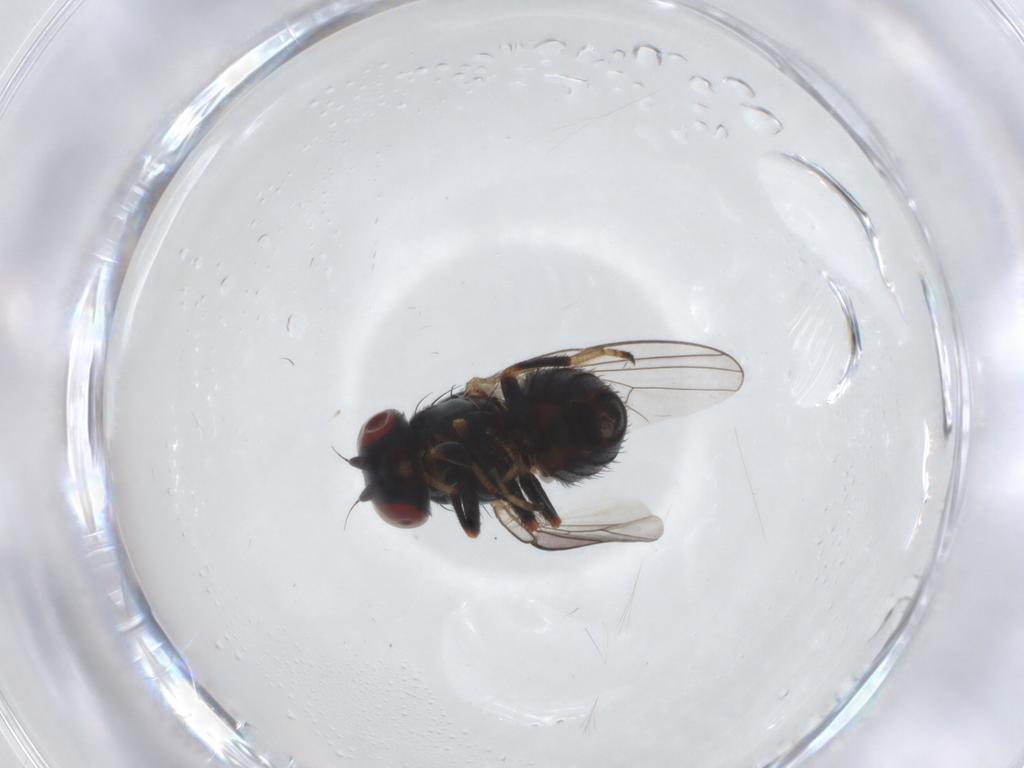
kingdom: Animalia
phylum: Arthropoda
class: Insecta
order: Diptera
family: Chamaemyiidae
